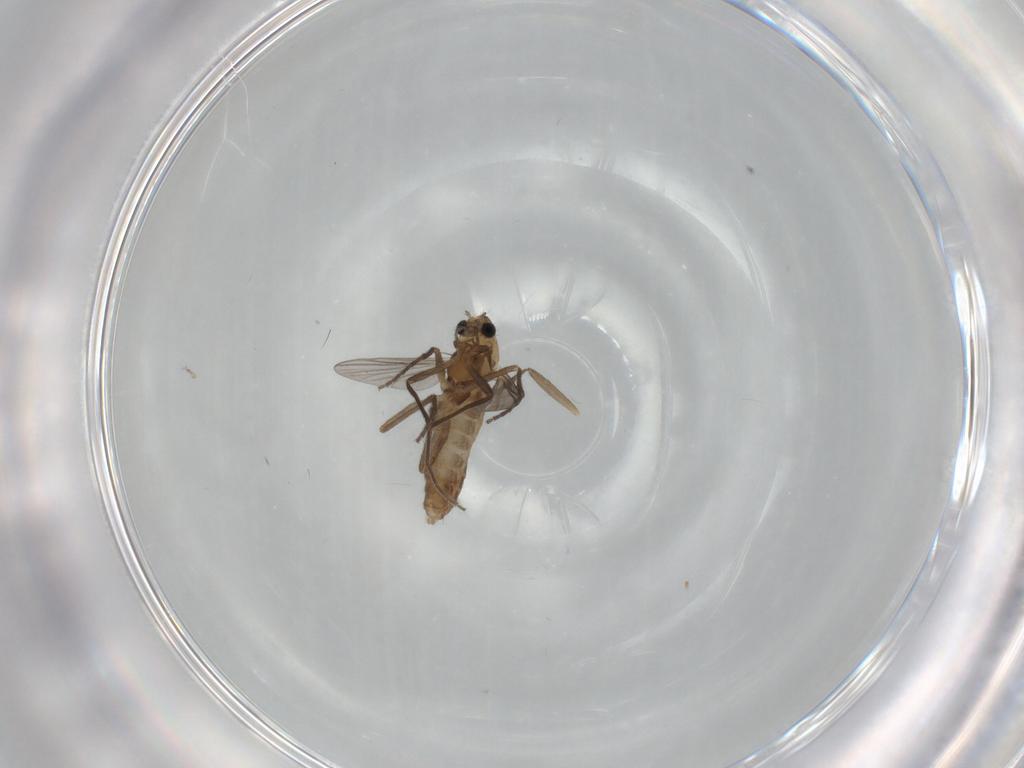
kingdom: Animalia
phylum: Arthropoda
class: Insecta
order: Diptera
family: Chironomidae
